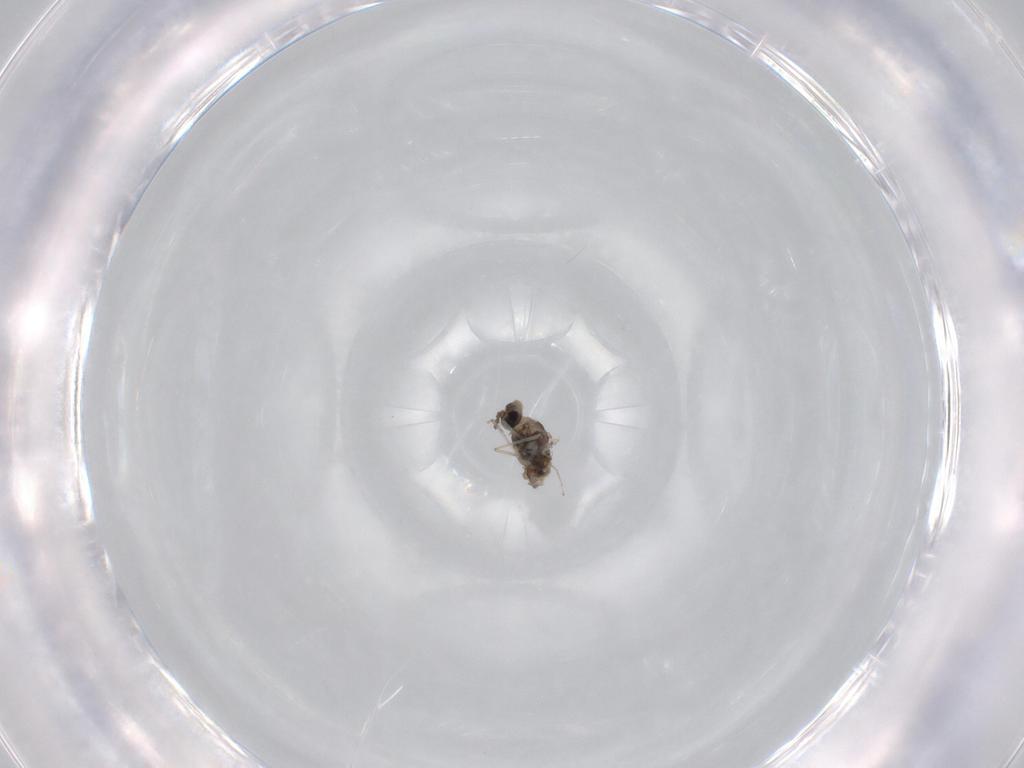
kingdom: Animalia
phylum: Arthropoda
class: Insecta
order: Diptera
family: Cecidomyiidae
